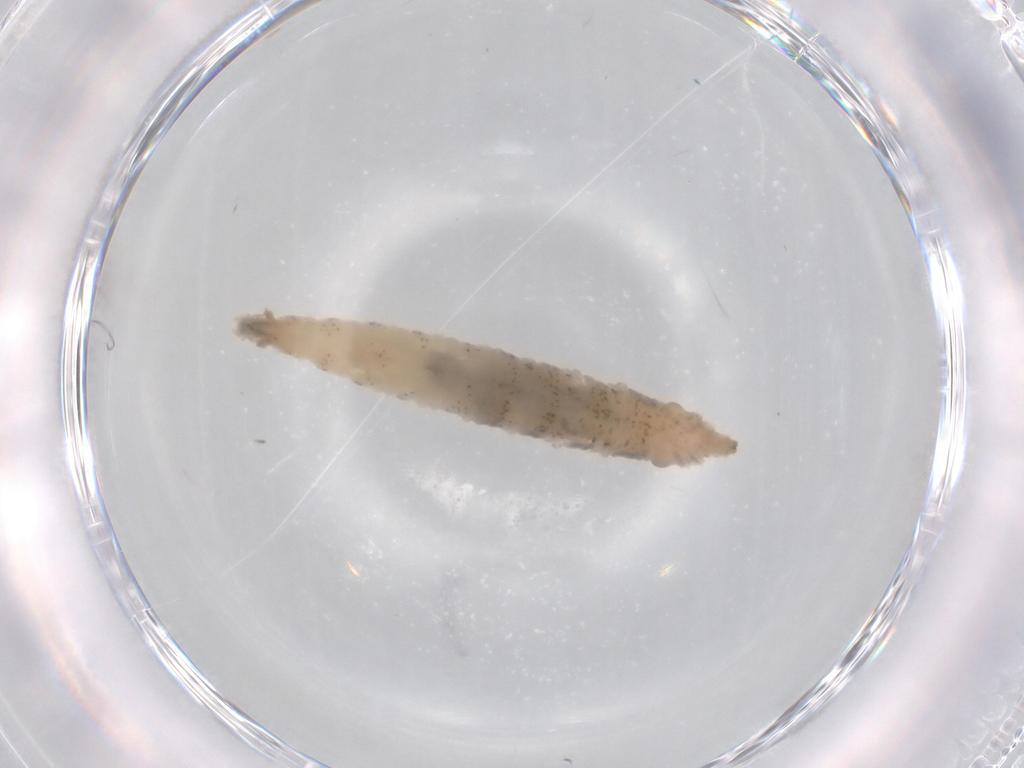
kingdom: Animalia
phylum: Arthropoda
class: Insecta
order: Diptera
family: Drosophilidae
